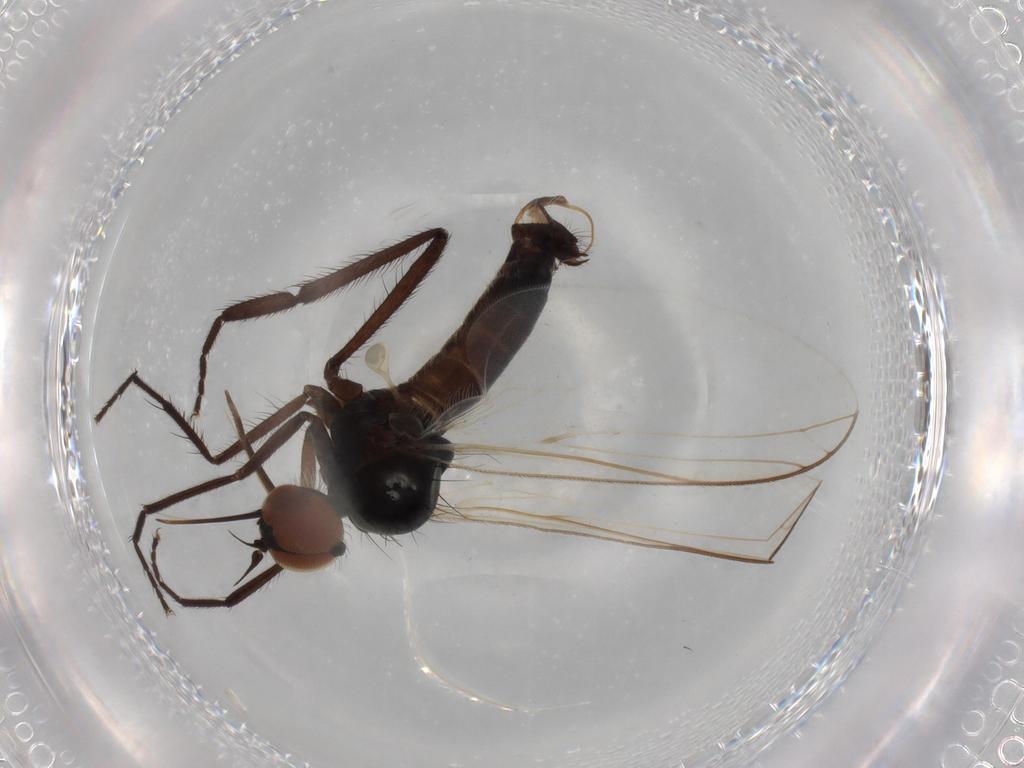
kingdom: Animalia
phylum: Arthropoda
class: Insecta
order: Diptera
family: Empididae
